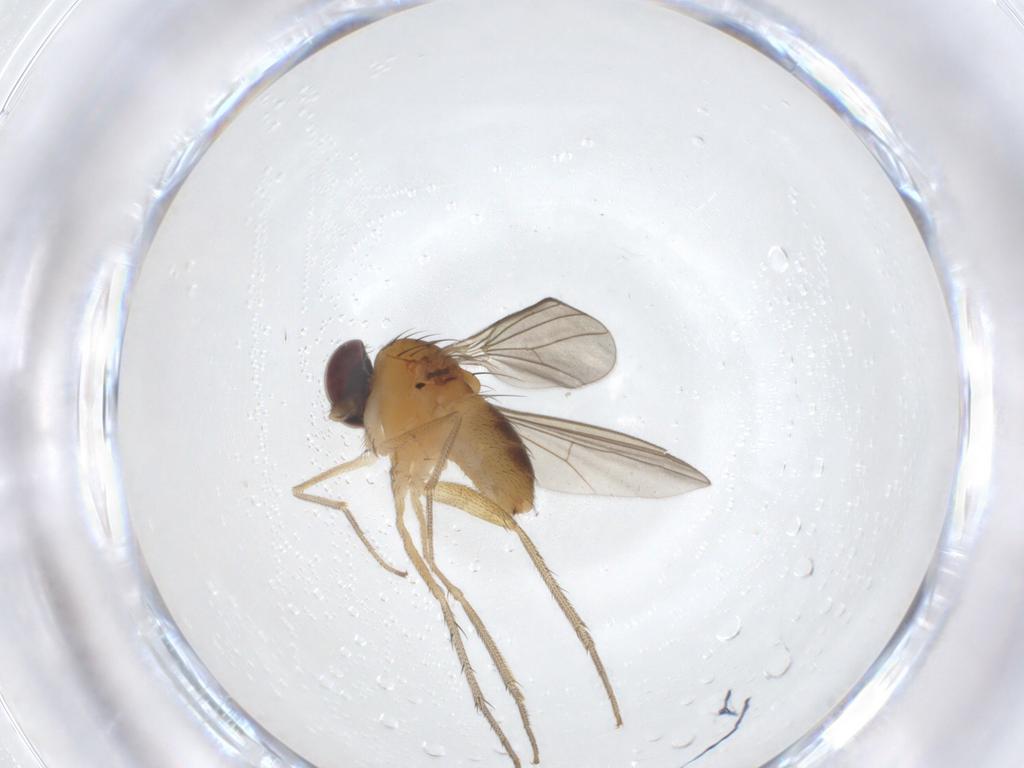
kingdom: Animalia
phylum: Arthropoda
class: Insecta
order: Diptera
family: Dolichopodidae
